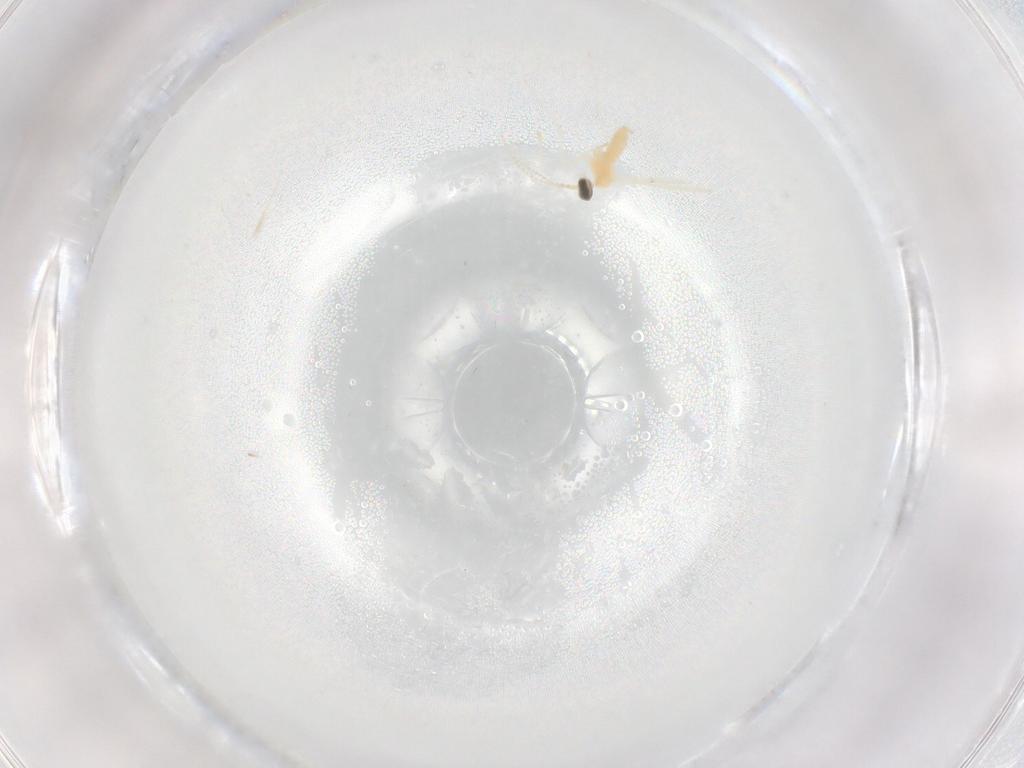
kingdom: Animalia
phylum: Arthropoda
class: Insecta
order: Diptera
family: Cecidomyiidae
